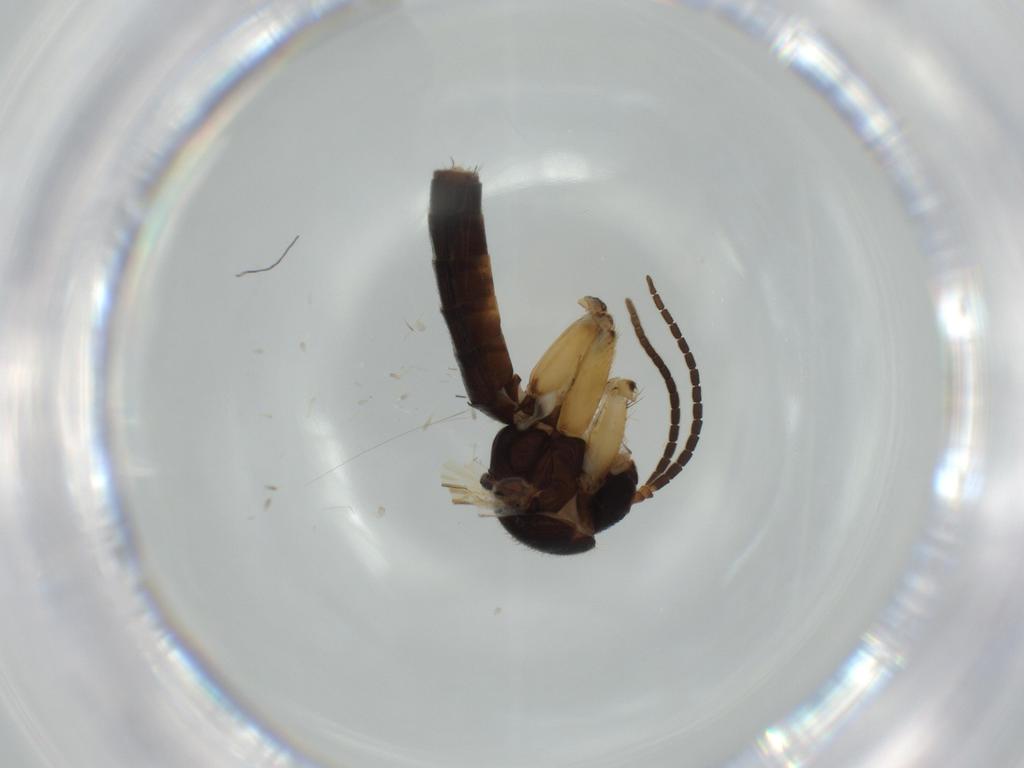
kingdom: Animalia
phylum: Arthropoda
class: Insecta
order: Diptera
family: Mycetophilidae
